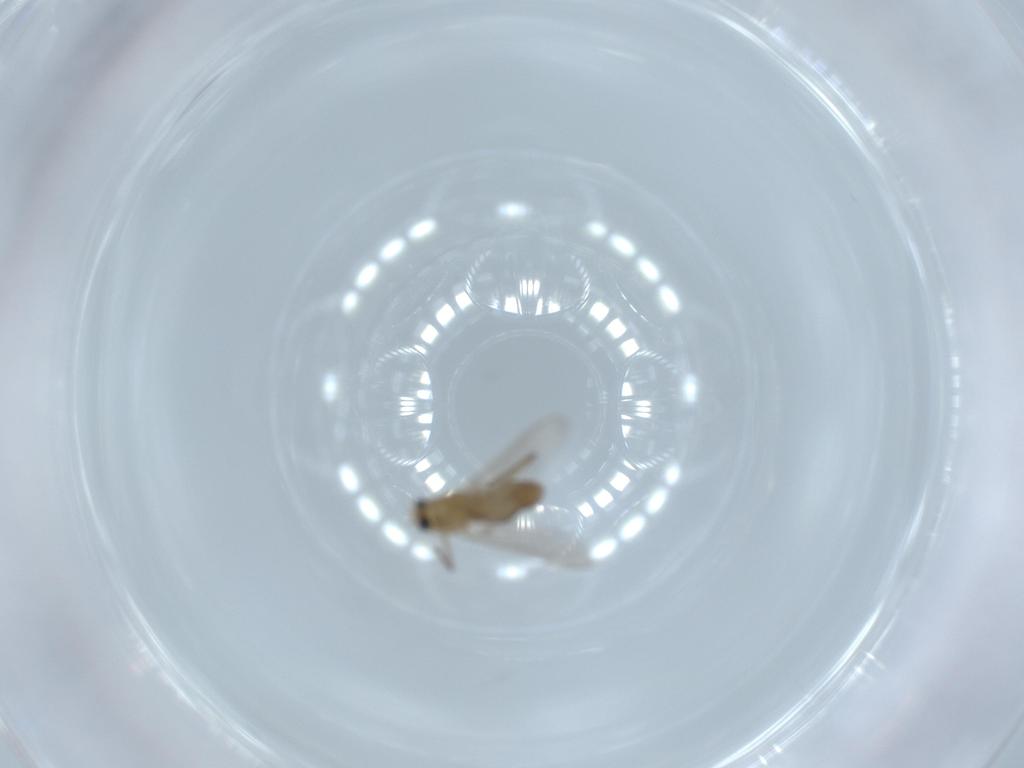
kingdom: Animalia
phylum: Arthropoda
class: Insecta
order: Diptera
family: Chironomidae
